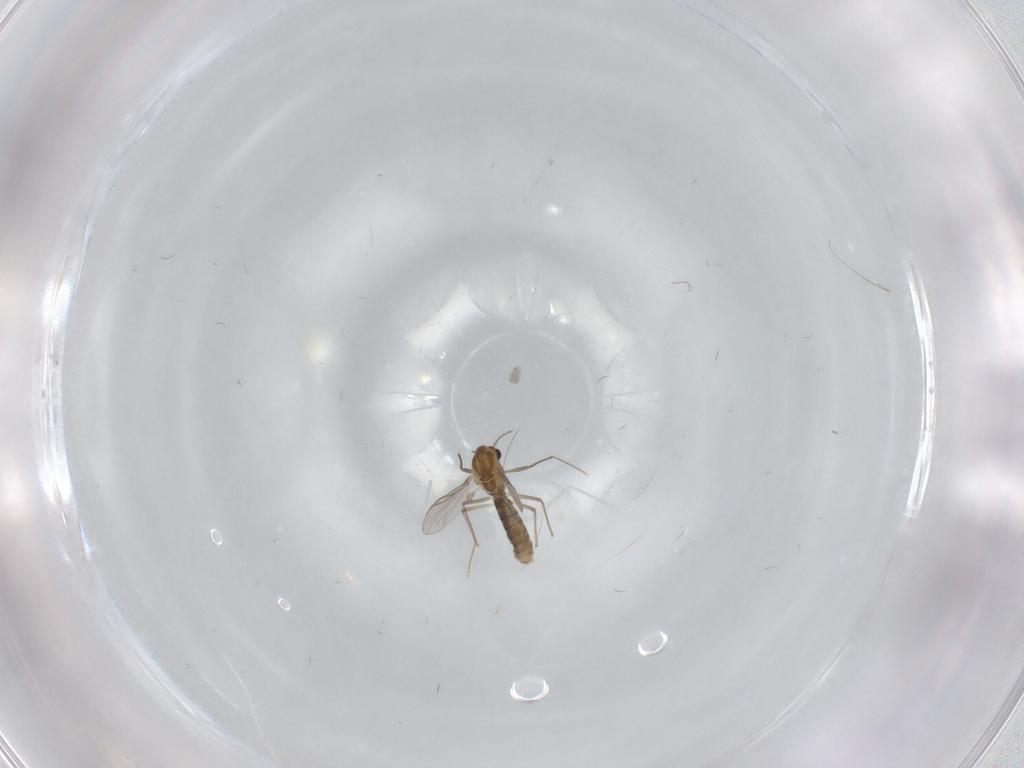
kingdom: Animalia
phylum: Arthropoda
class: Insecta
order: Diptera
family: Chironomidae
